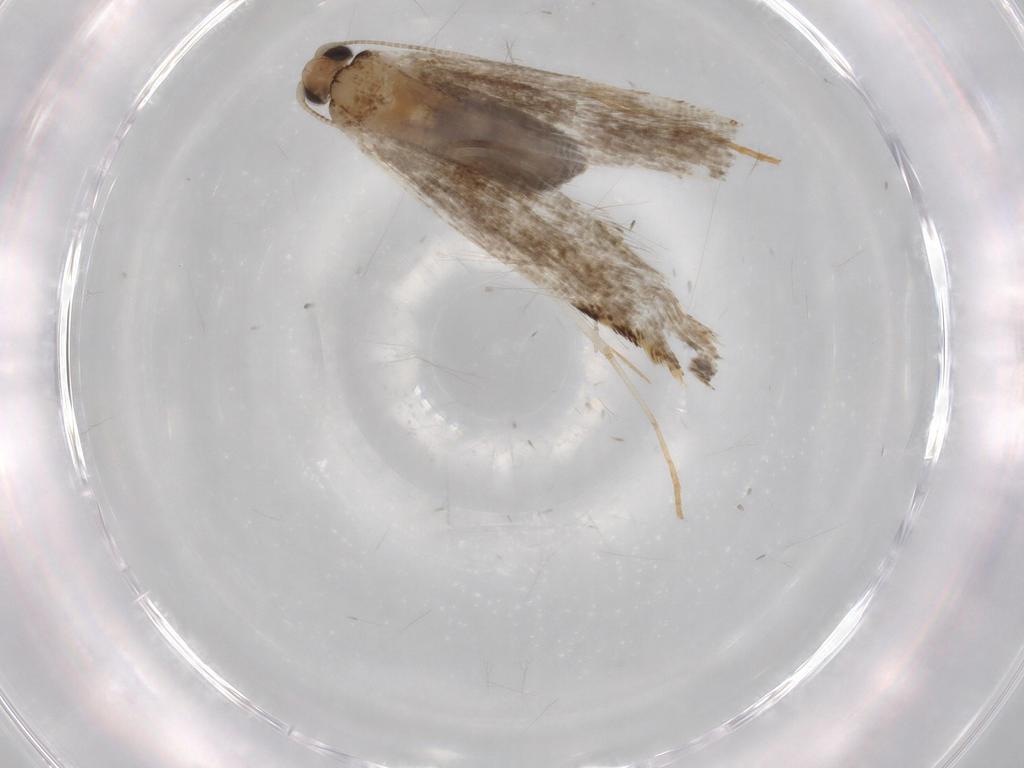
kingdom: Animalia
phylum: Arthropoda
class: Insecta
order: Lepidoptera
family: Tineidae
